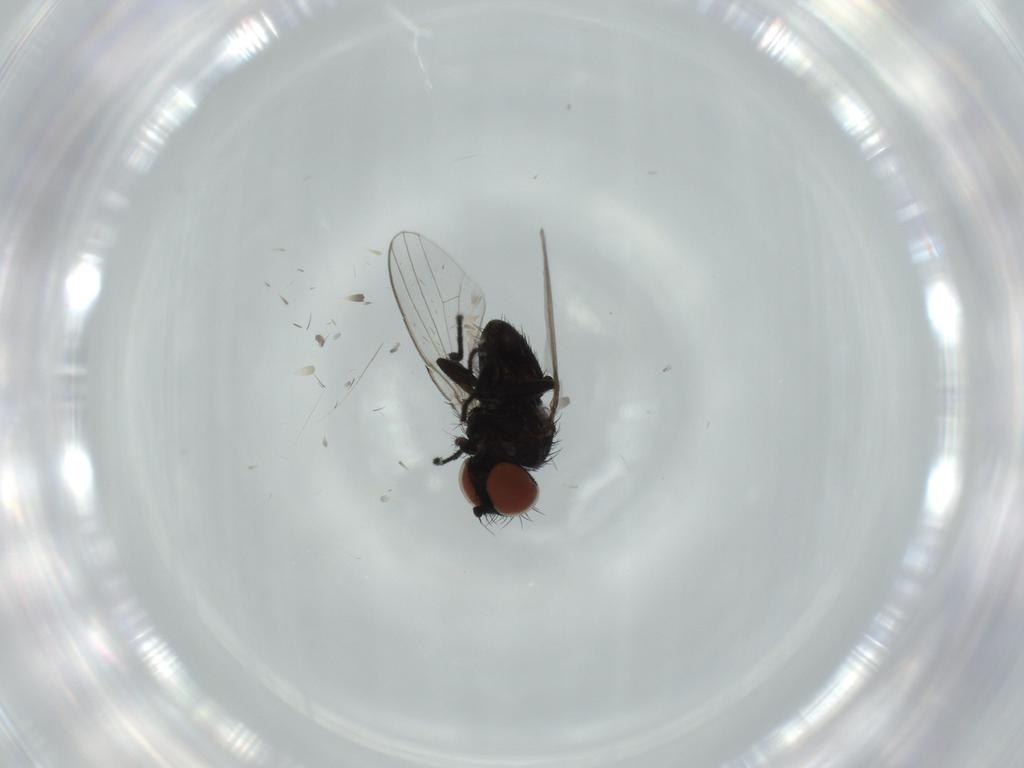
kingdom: Animalia
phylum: Arthropoda
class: Insecta
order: Diptera
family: Milichiidae
